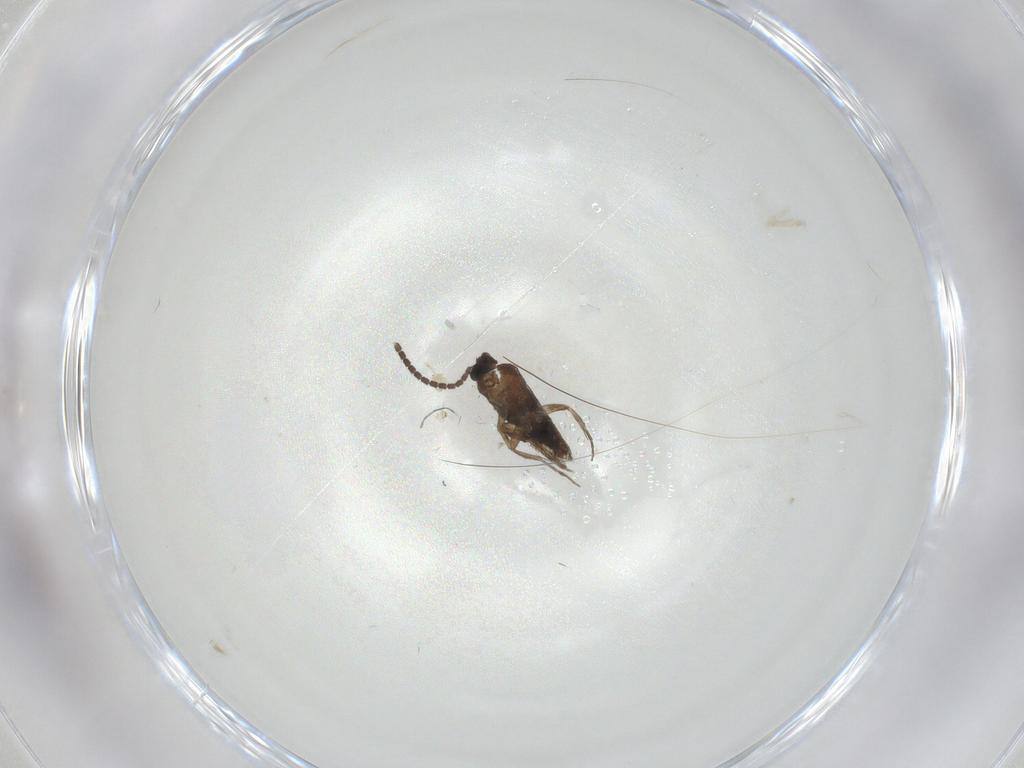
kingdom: Animalia
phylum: Arthropoda
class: Insecta
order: Diptera
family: Phoridae
